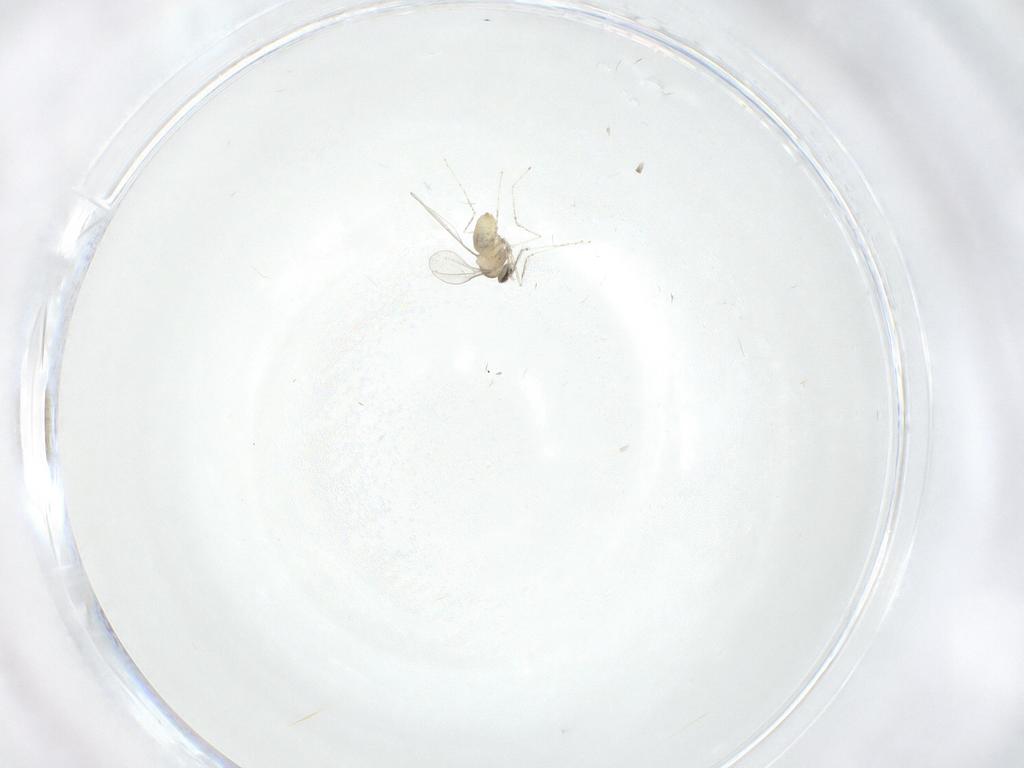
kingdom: Animalia
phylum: Arthropoda
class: Insecta
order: Diptera
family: Cecidomyiidae
